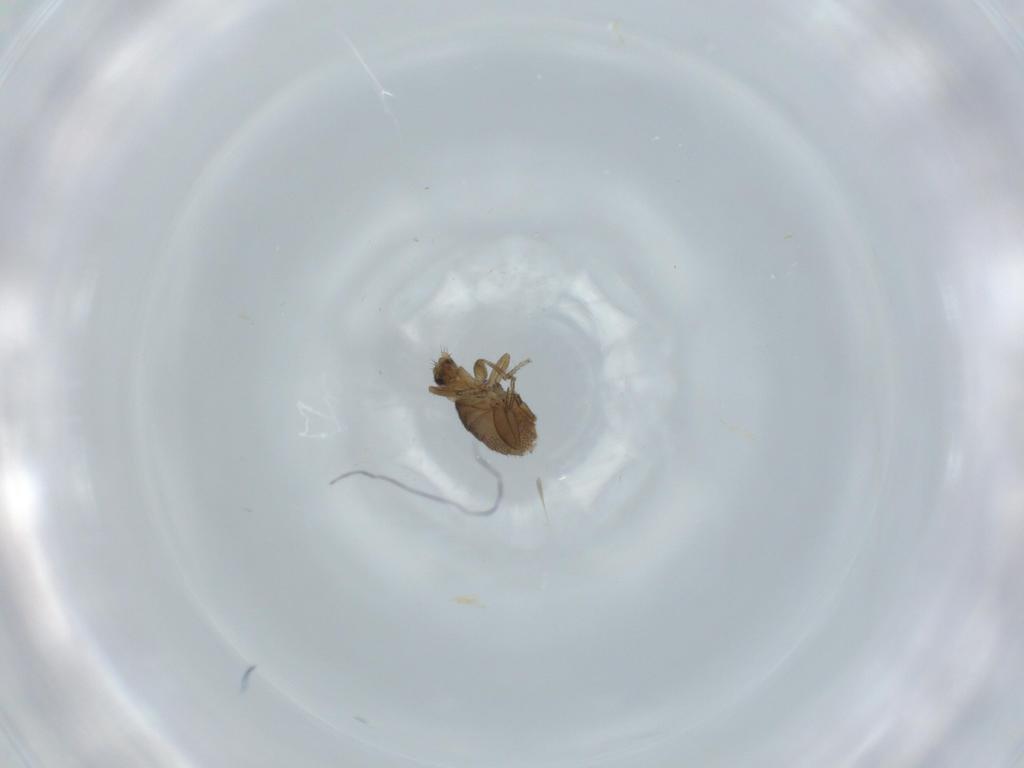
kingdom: Animalia
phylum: Arthropoda
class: Insecta
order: Diptera
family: Phoridae
